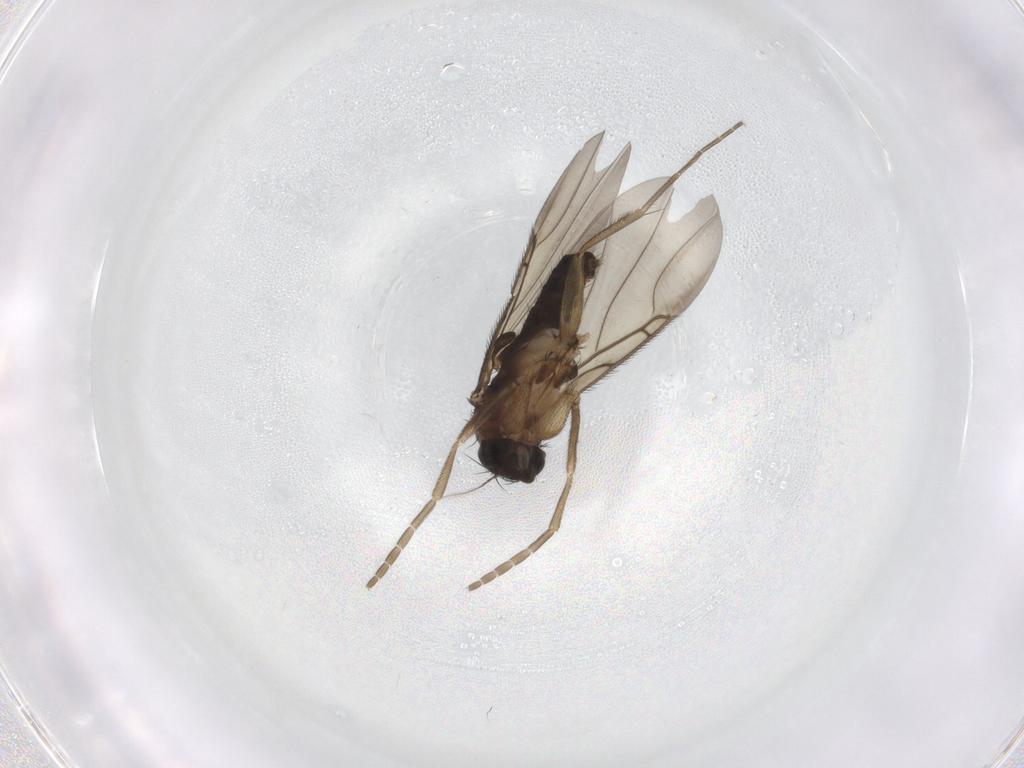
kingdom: Animalia
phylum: Arthropoda
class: Insecta
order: Diptera
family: Phoridae
